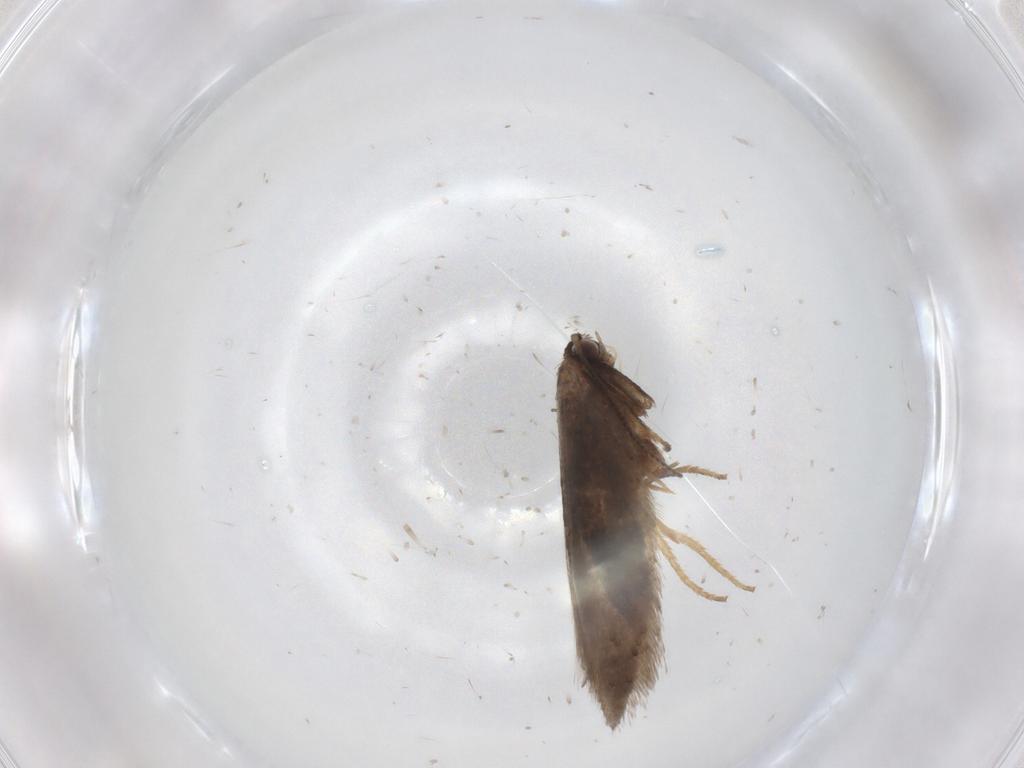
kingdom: Animalia
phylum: Arthropoda
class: Insecta
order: Lepidoptera
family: Nepticulidae
